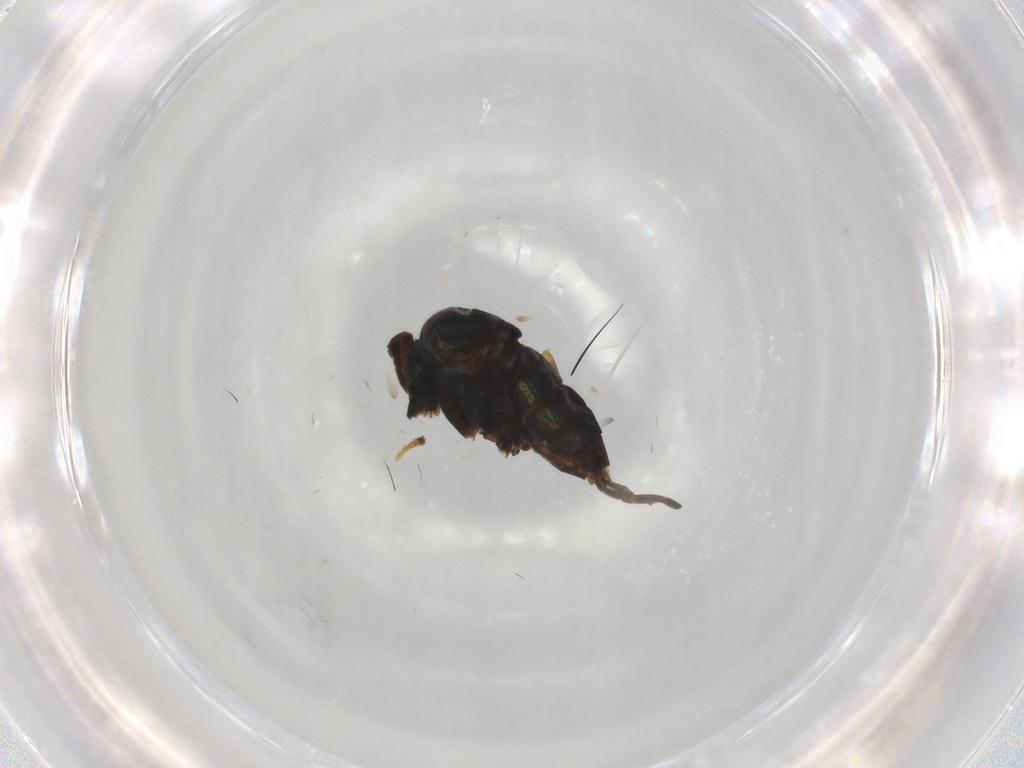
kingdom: Animalia
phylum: Arthropoda
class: Insecta
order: Diptera
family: Dolichopodidae
